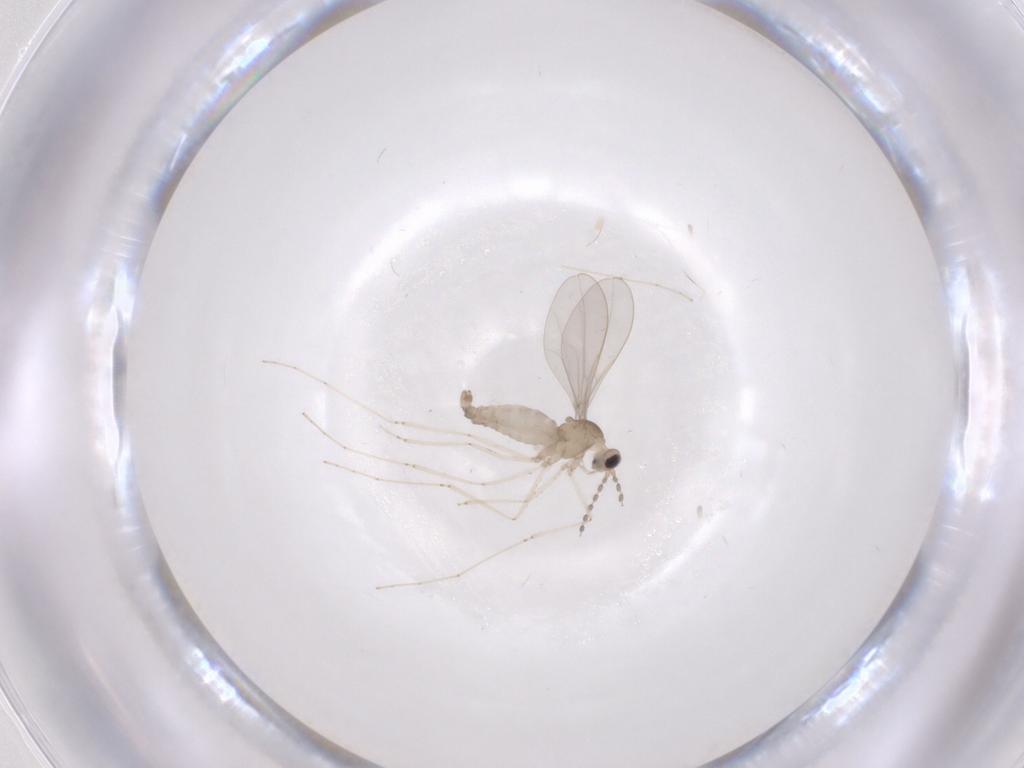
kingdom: Animalia
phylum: Arthropoda
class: Insecta
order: Diptera
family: Cecidomyiidae
